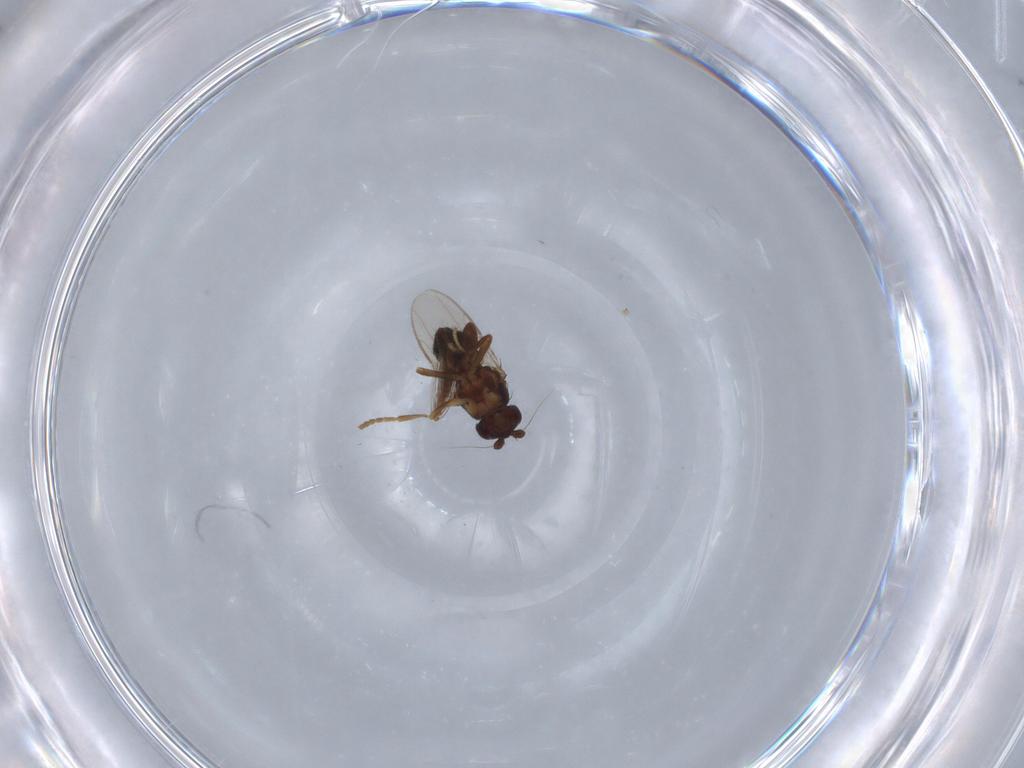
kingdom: Animalia
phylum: Arthropoda
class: Insecta
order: Diptera
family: Sphaeroceridae
